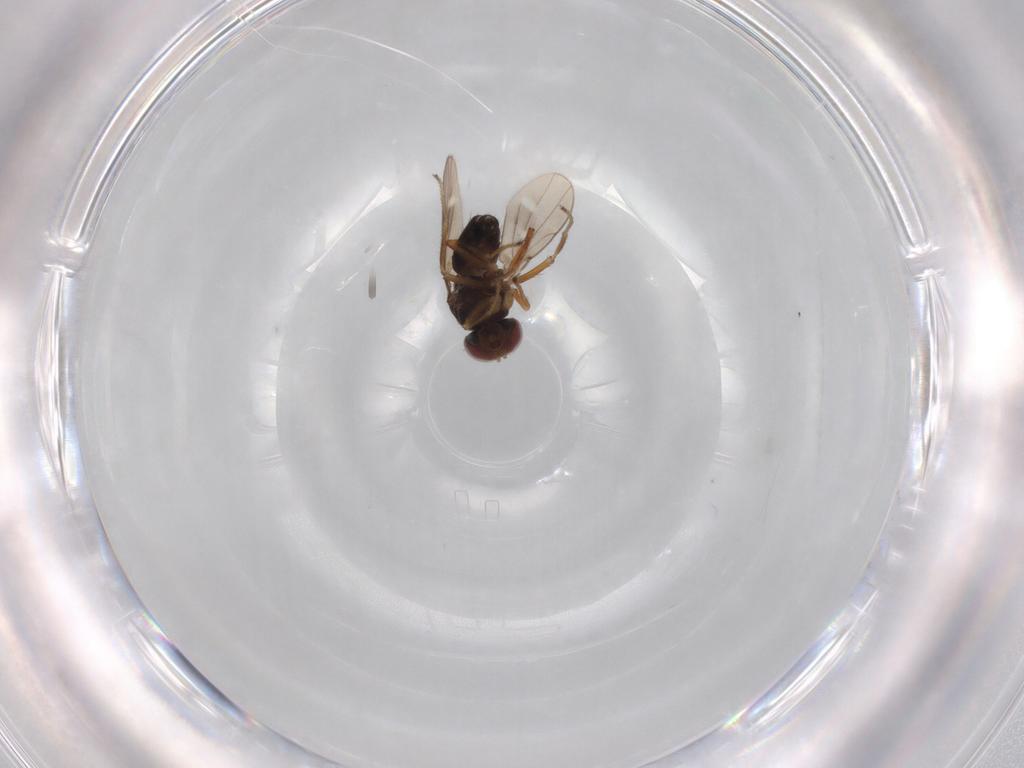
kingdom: Animalia
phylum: Arthropoda
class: Insecta
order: Diptera
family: Ephydridae
